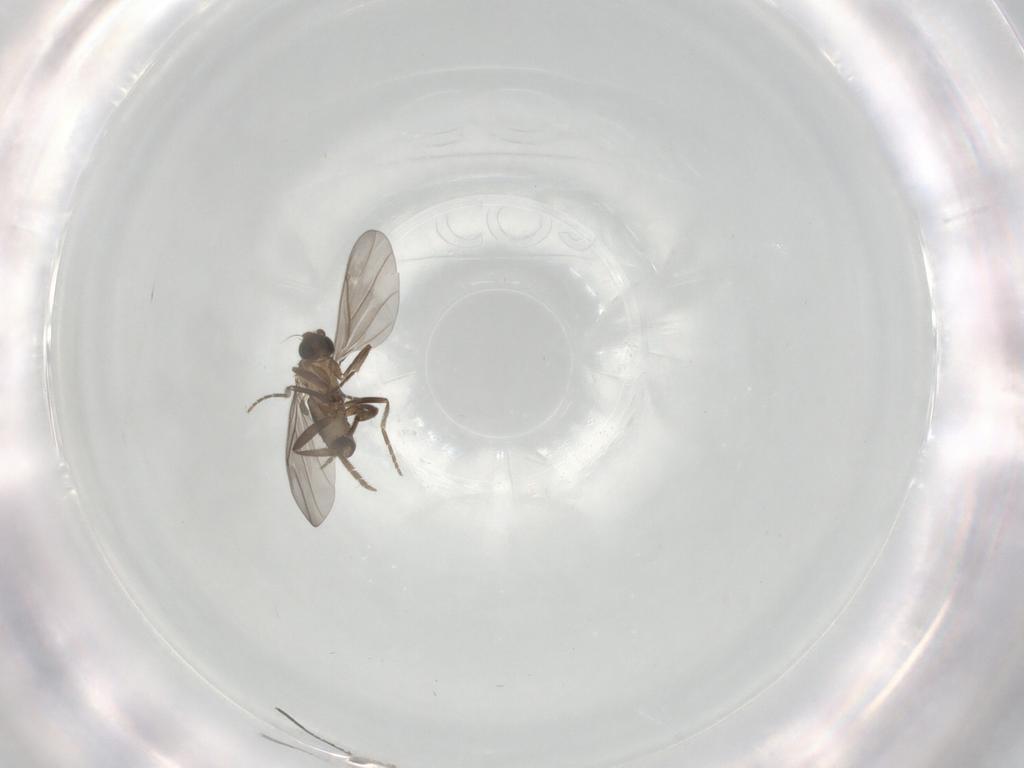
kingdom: Animalia
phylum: Arthropoda
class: Insecta
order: Diptera
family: Phoridae
